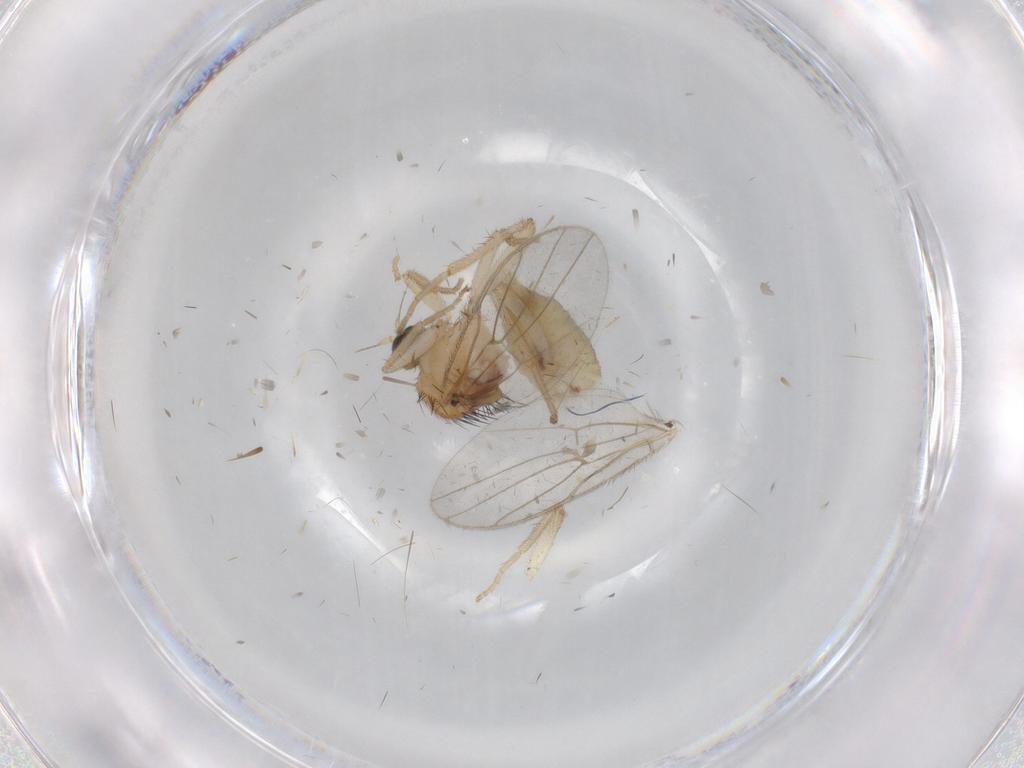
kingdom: Animalia
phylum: Arthropoda
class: Insecta
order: Diptera
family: Hybotidae
